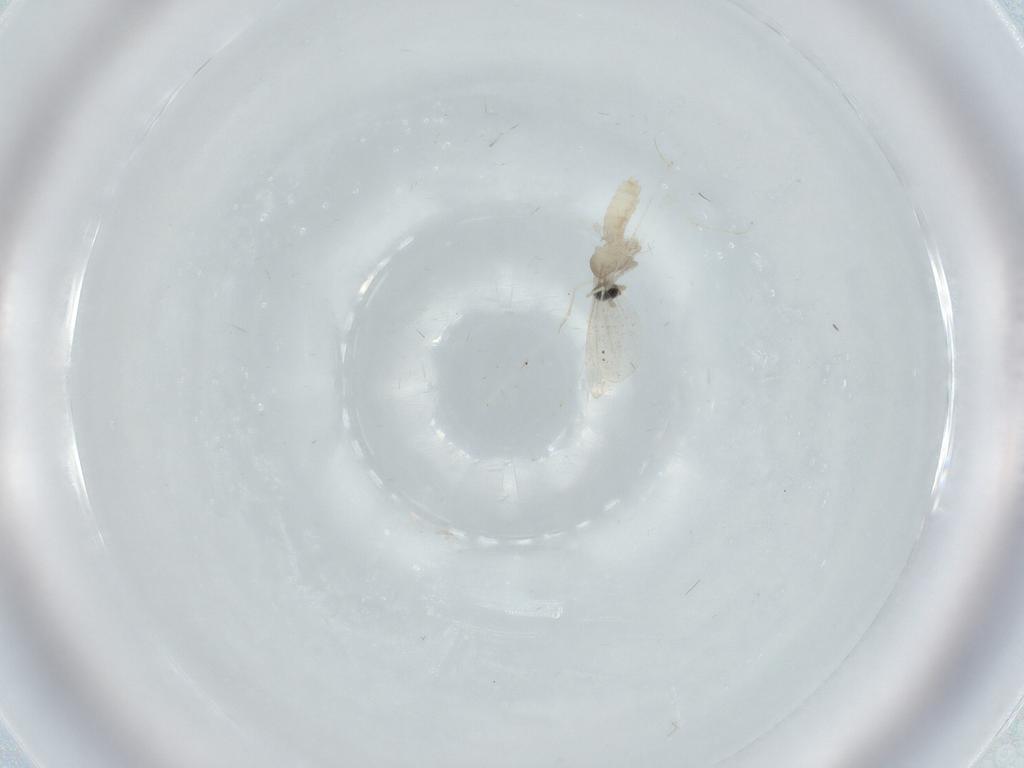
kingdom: Animalia
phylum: Arthropoda
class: Insecta
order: Diptera
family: Cecidomyiidae
